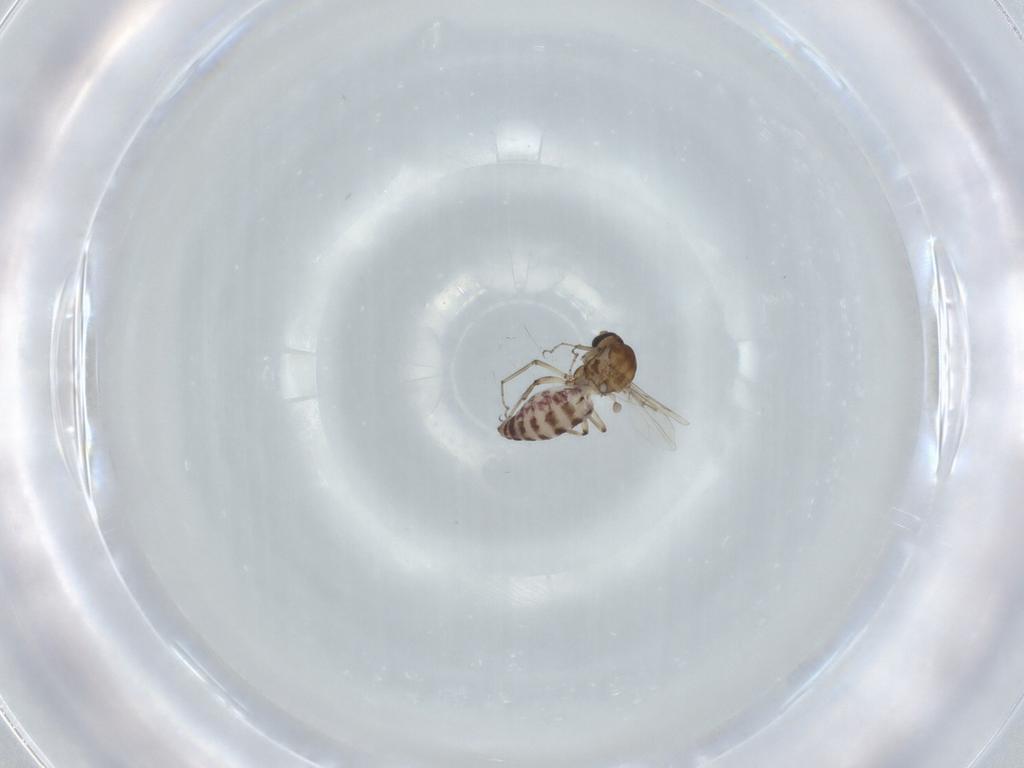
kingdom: Animalia
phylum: Arthropoda
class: Insecta
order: Diptera
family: Ceratopogonidae
